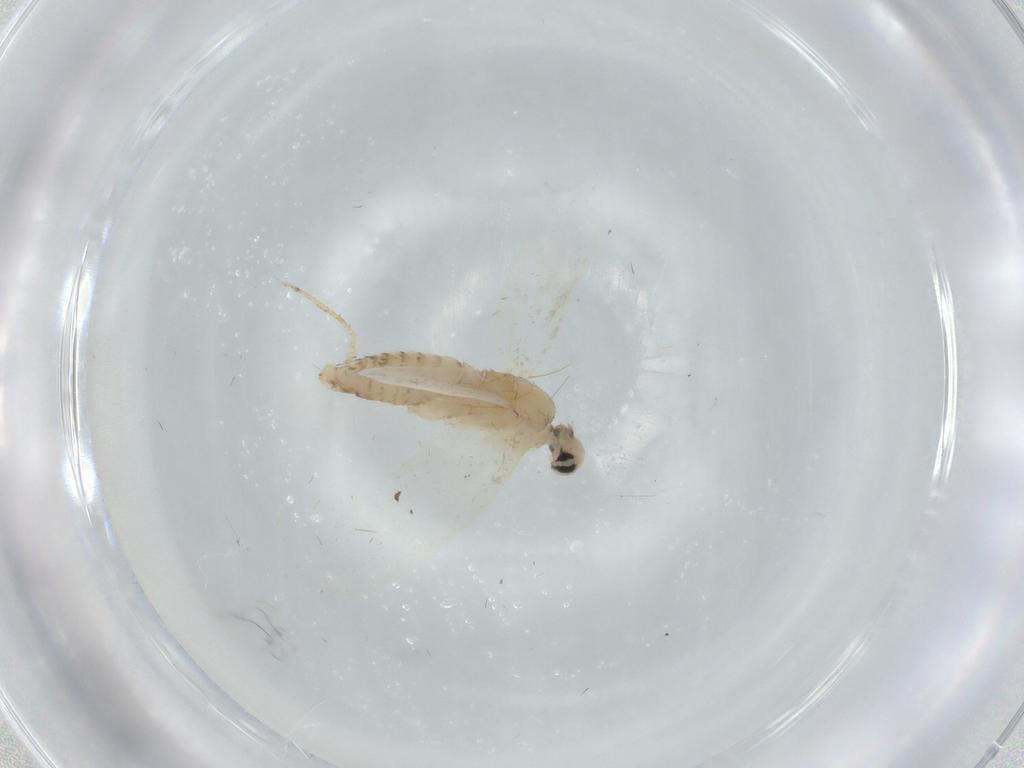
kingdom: Animalia
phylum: Arthropoda
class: Insecta
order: Lepidoptera
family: Psychidae
